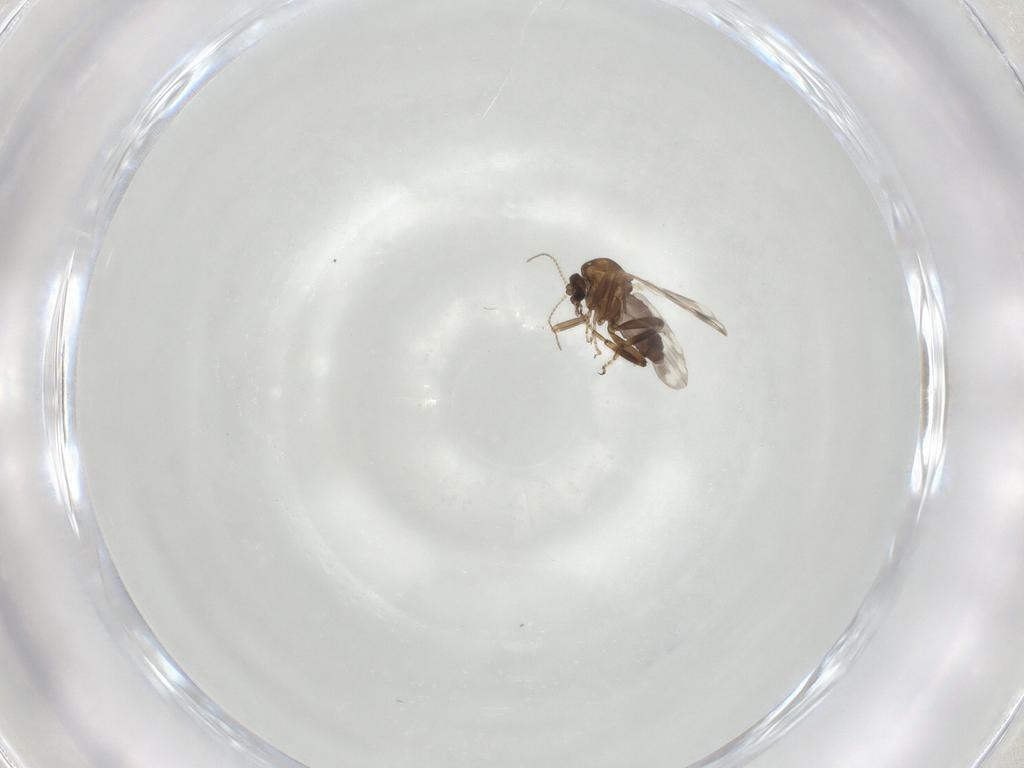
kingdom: Animalia
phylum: Arthropoda
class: Insecta
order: Diptera
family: Ceratopogonidae
